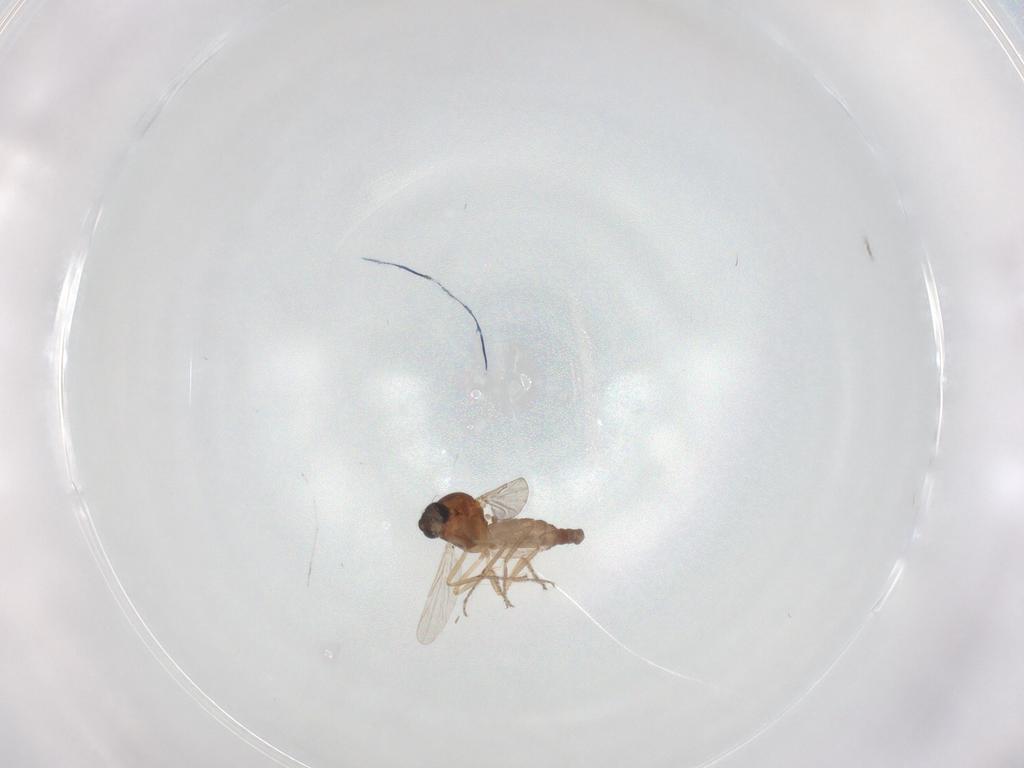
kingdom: Animalia
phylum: Arthropoda
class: Insecta
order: Diptera
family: Ceratopogonidae
